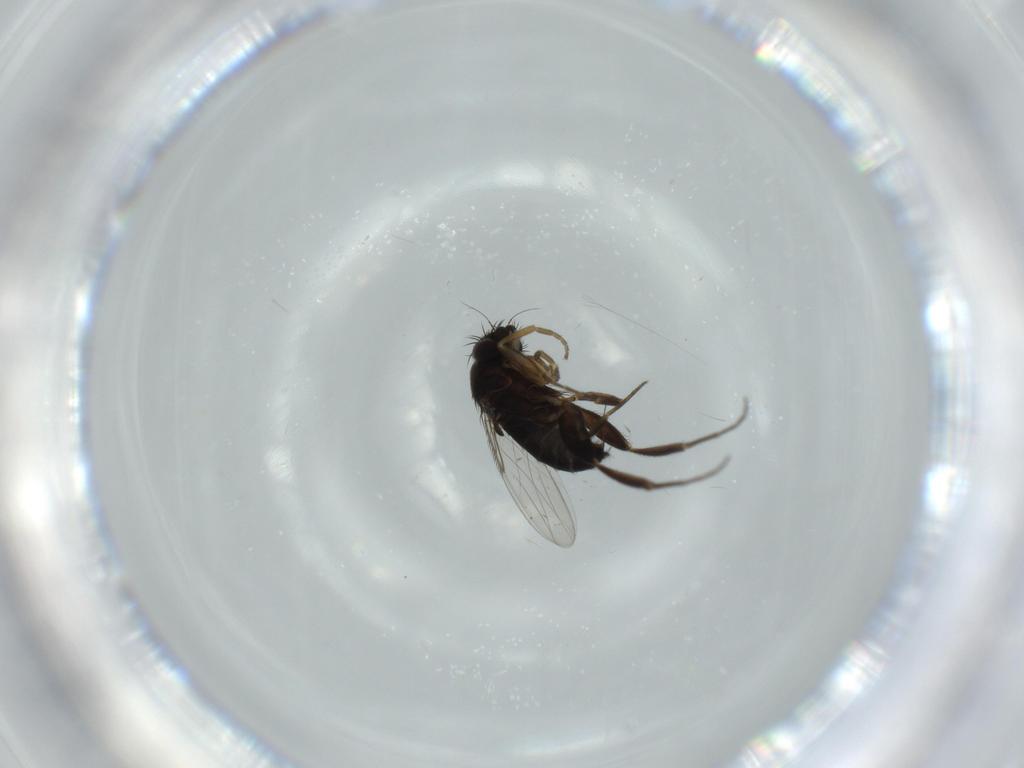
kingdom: Animalia
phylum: Arthropoda
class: Insecta
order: Diptera
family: Phoridae
